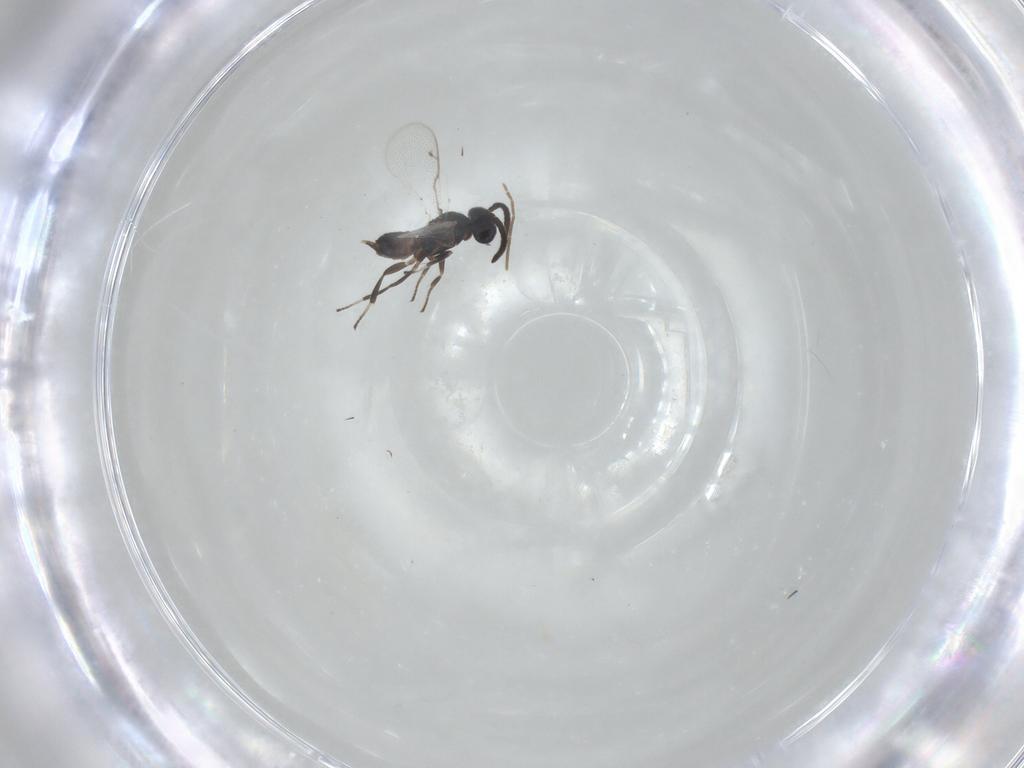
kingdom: Animalia
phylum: Arthropoda
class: Insecta
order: Hymenoptera
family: Eupelmidae
